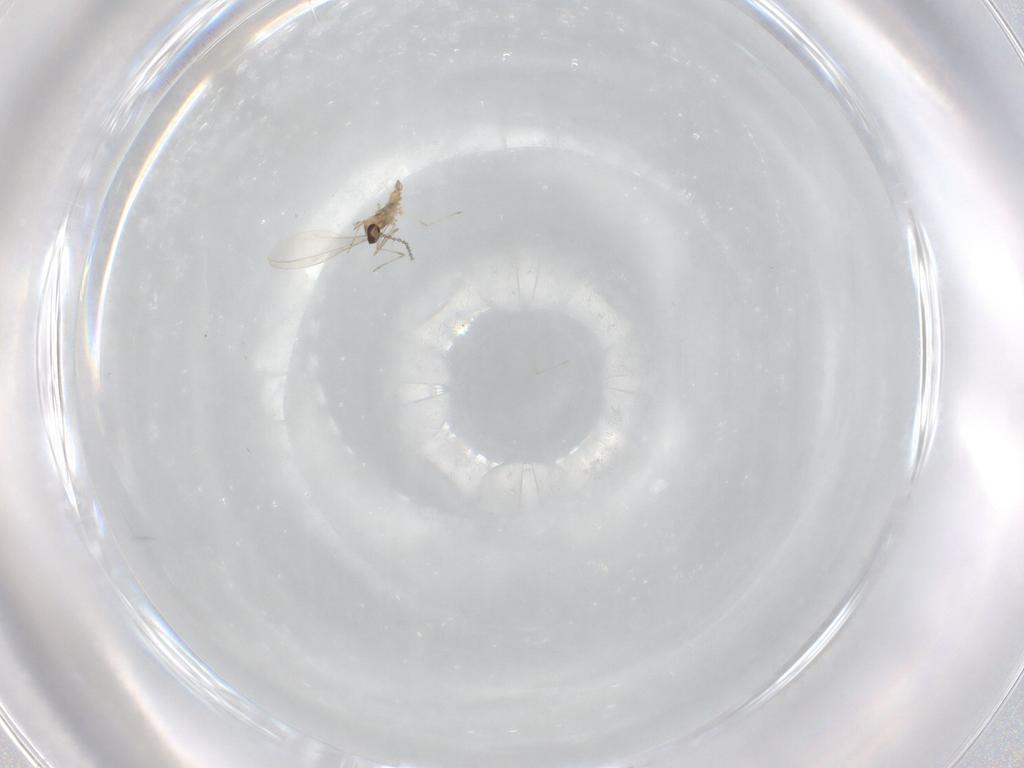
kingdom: Animalia
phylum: Arthropoda
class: Insecta
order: Diptera
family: Cecidomyiidae
